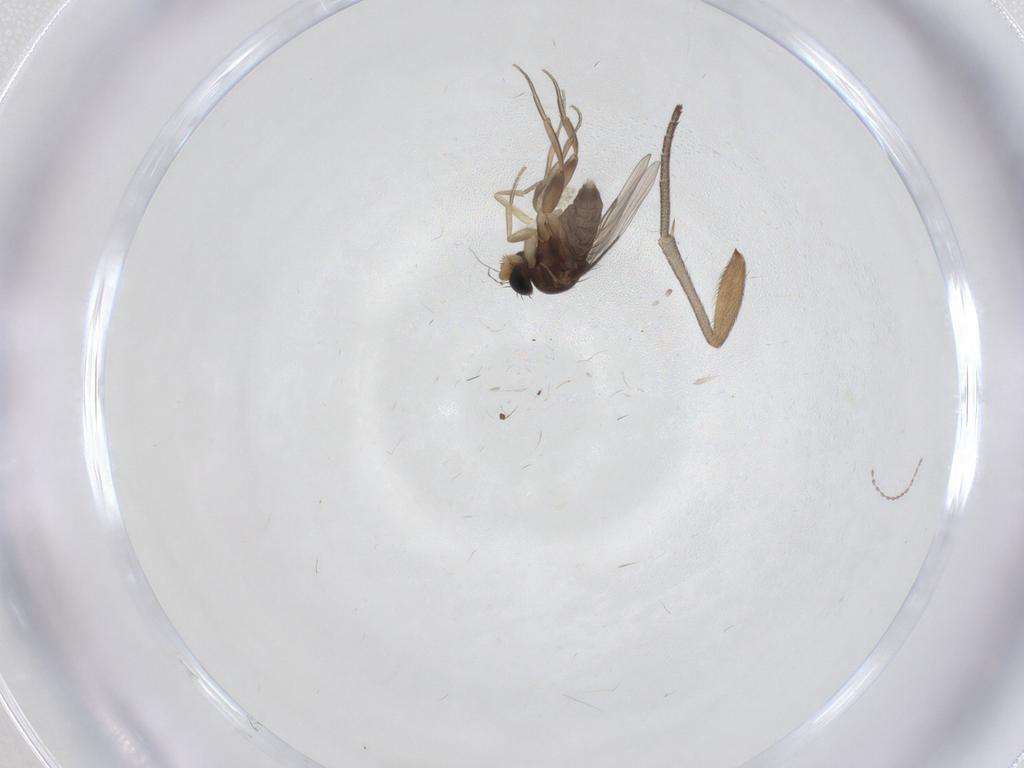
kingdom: Animalia
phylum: Arthropoda
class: Insecta
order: Diptera
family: Mycetophilidae
